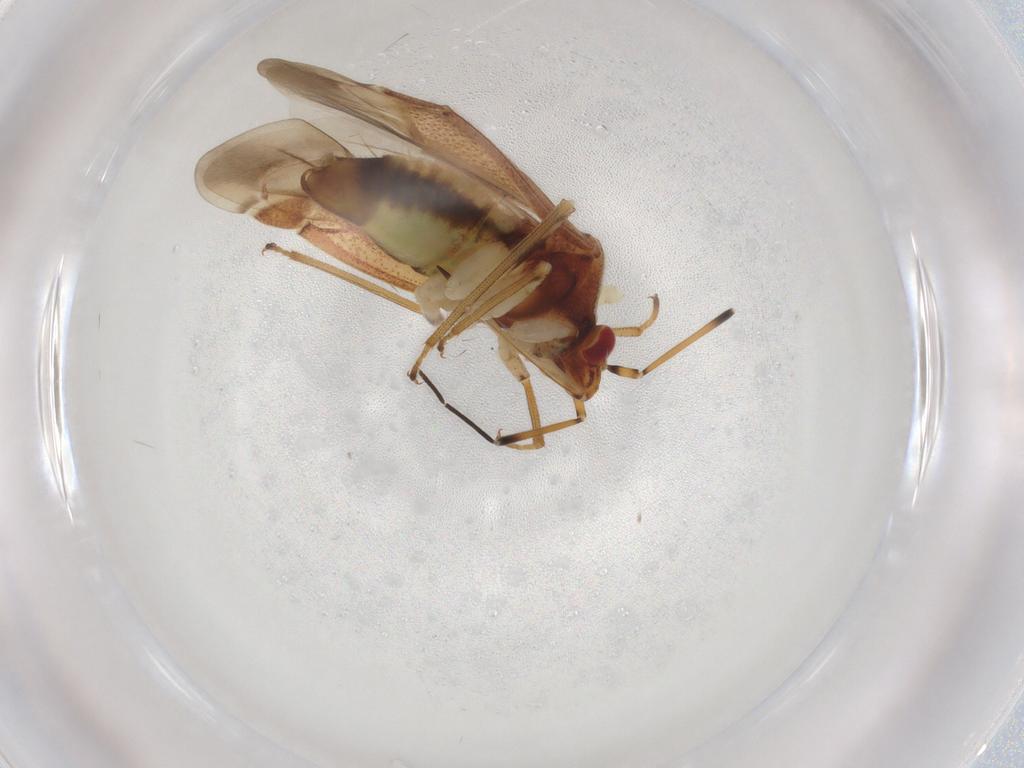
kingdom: Animalia
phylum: Arthropoda
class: Insecta
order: Hemiptera
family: Miridae
